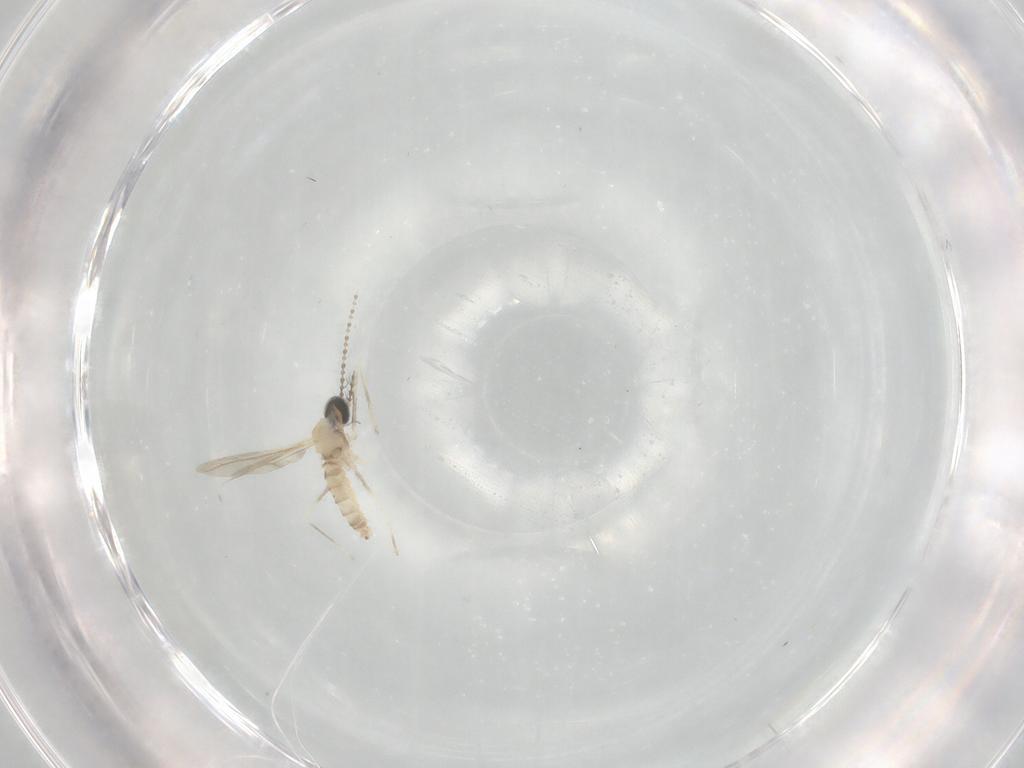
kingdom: Animalia
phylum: Arthropoda
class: Insecta
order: Diptera
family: Cecidomyiidae
